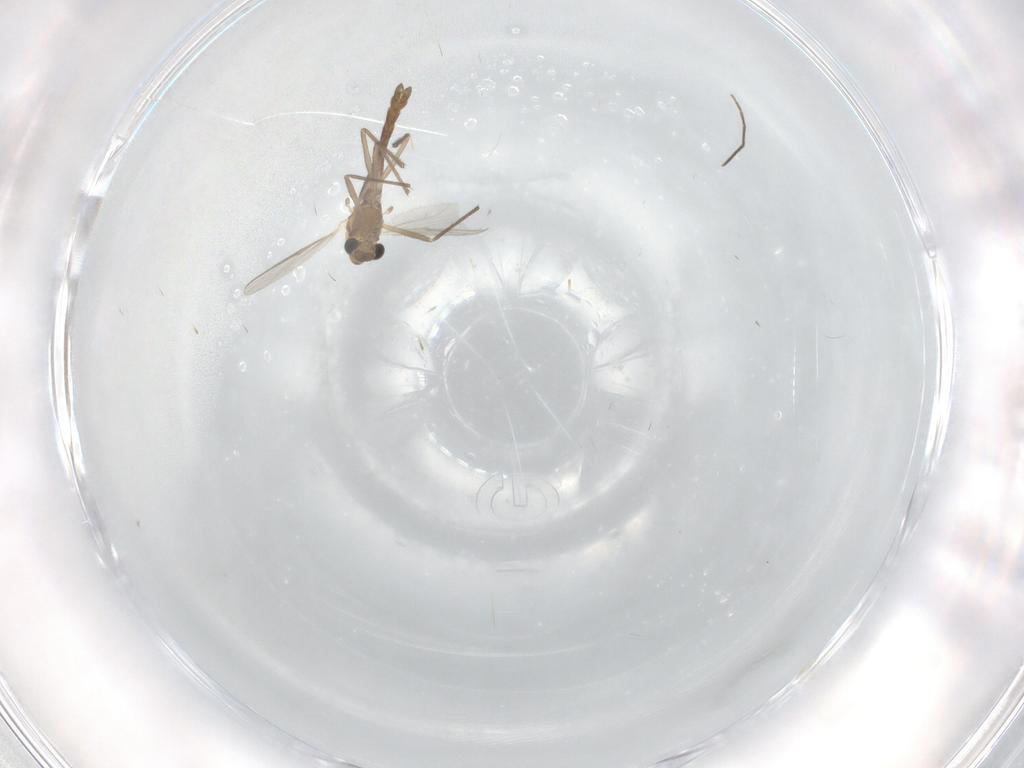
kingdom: Animalia
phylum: Arthropoda
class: Insecta
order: Diptera
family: Chironomidae
